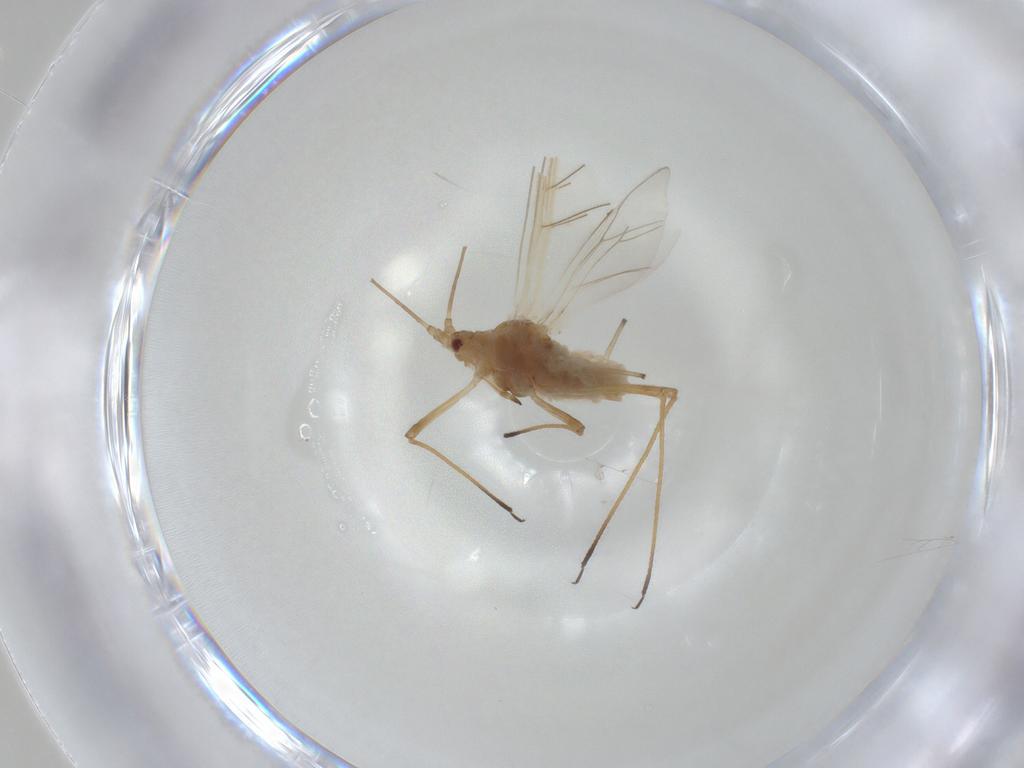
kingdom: Animalia
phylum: Arthropoda
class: Insecta
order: Hemiptera
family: Aphididae
